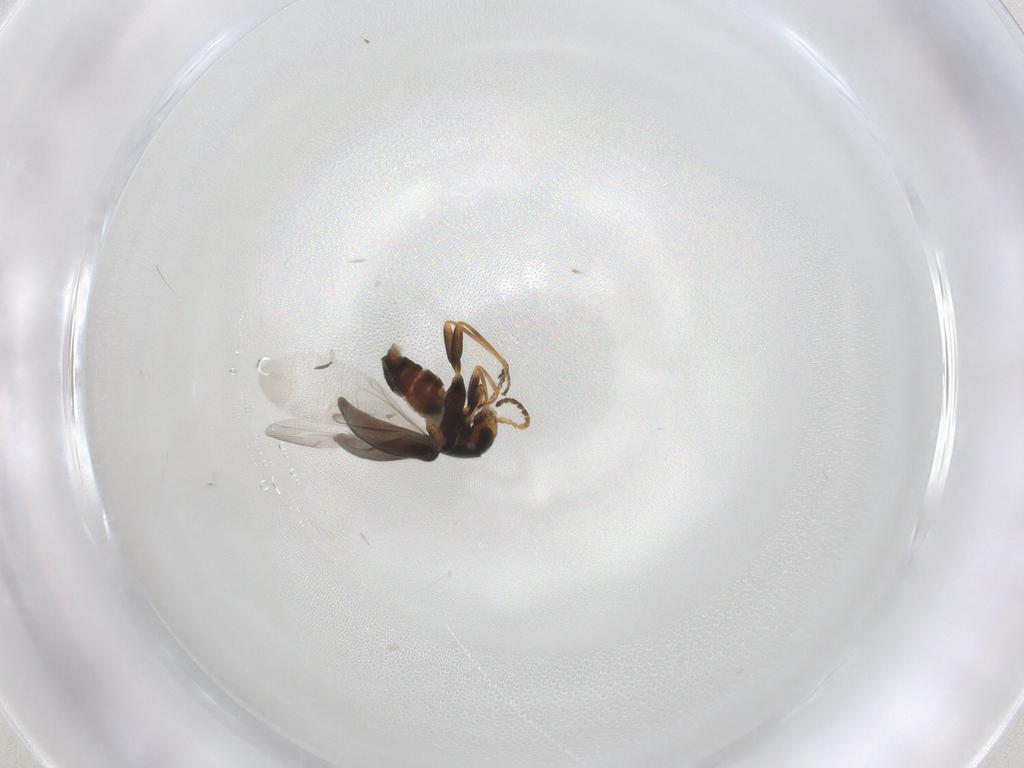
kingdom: Animalia
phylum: Arthropoda
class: Insecta
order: Coleoptera
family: Melyridae
